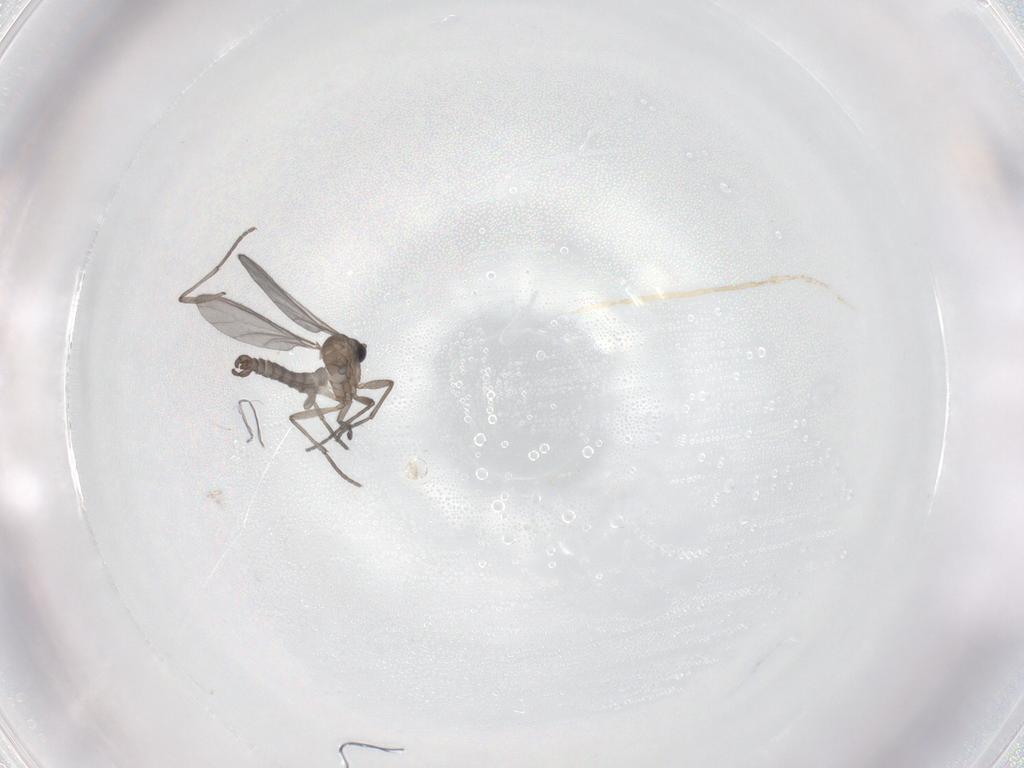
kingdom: Animalia
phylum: Arthropoda
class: Insecta
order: Diptera
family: Sciaridae
